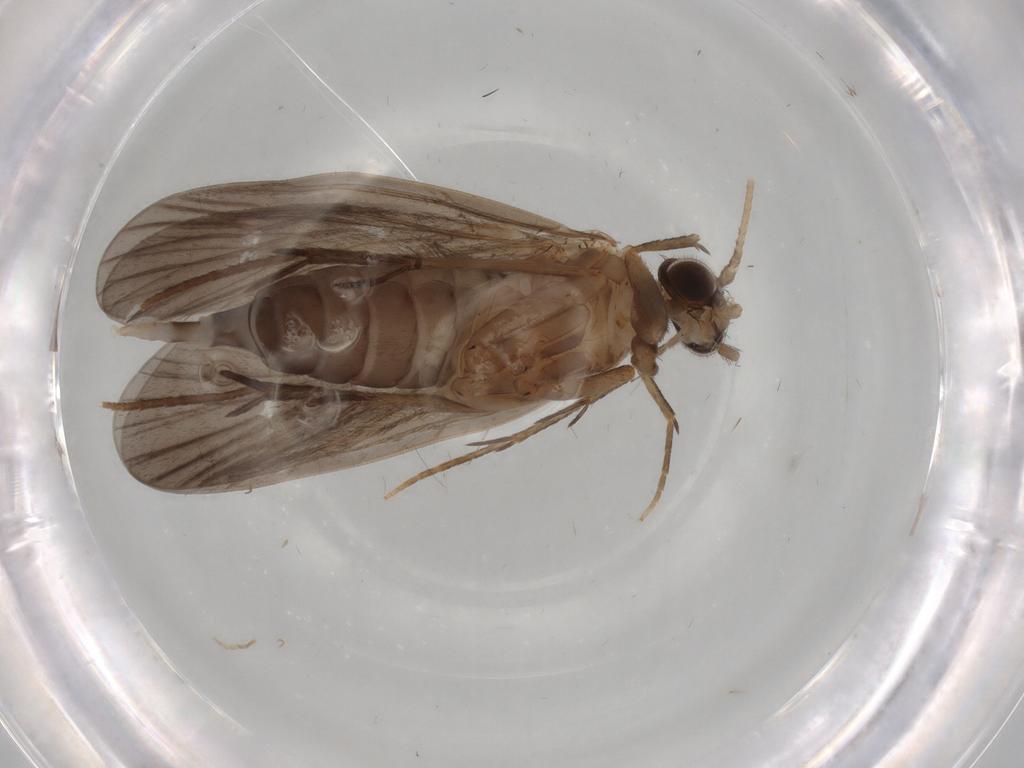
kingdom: Animalia
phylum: Arthropoda
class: Insecta
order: Trichoptera
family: Philopotamidae
